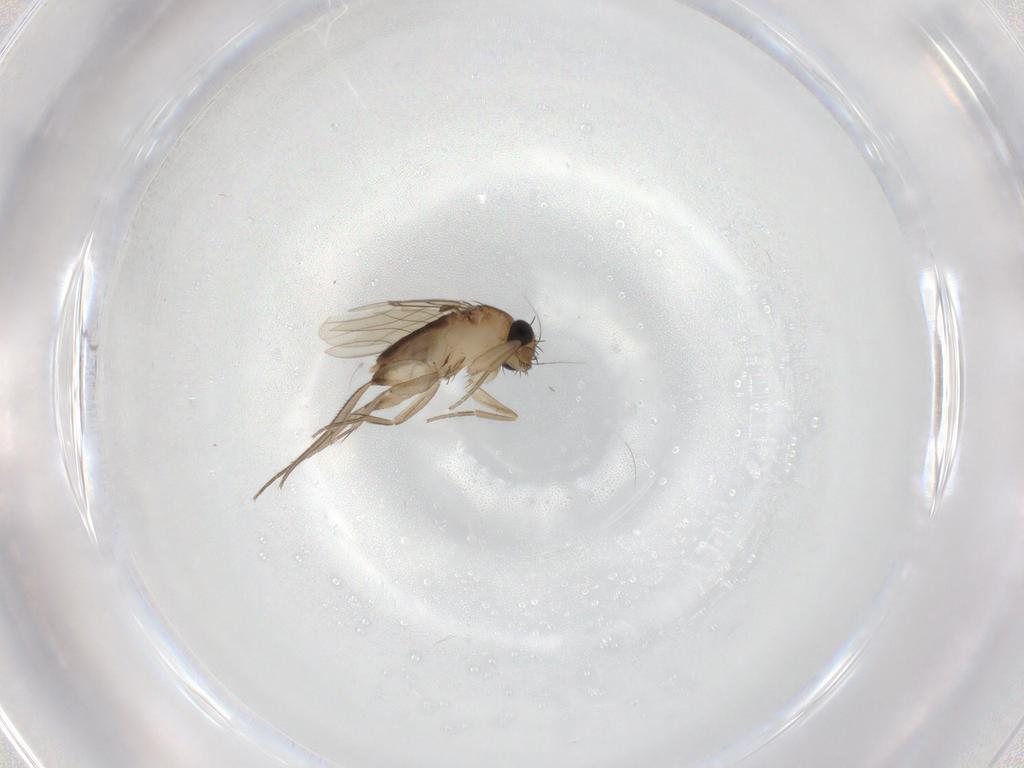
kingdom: Animalia
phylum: Arthropoda
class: Insecta
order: Diptera
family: Phoridae
